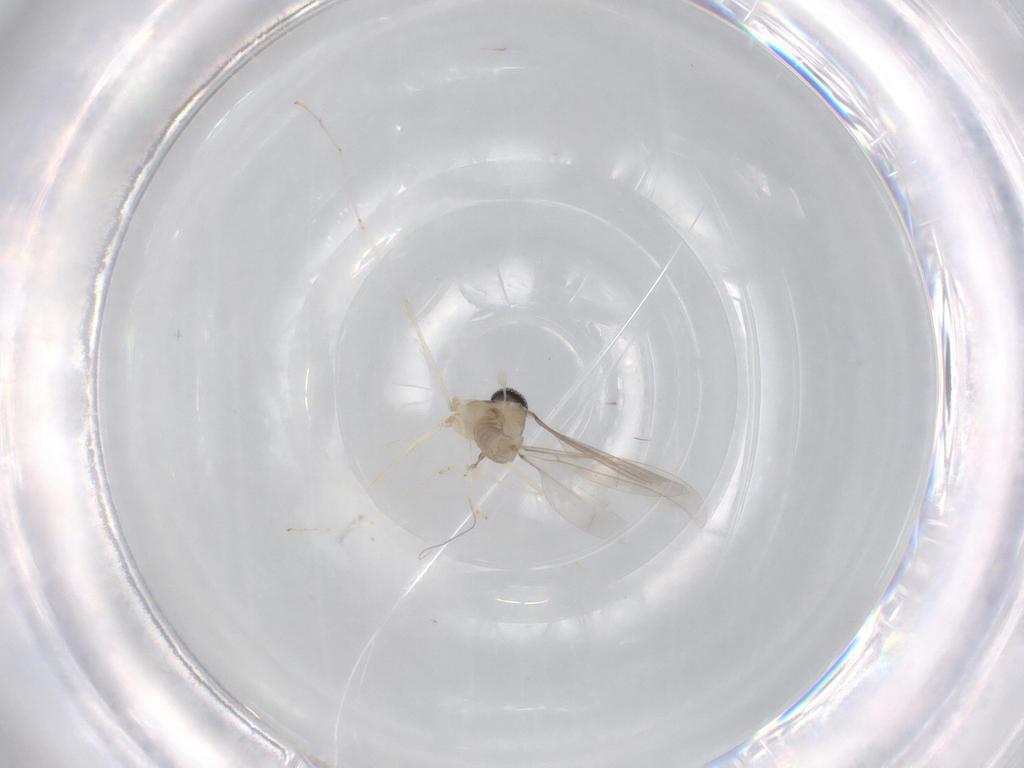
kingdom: Animalia
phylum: Arthropoda
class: Insecta
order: Diptera
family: Cecidomyiidae
